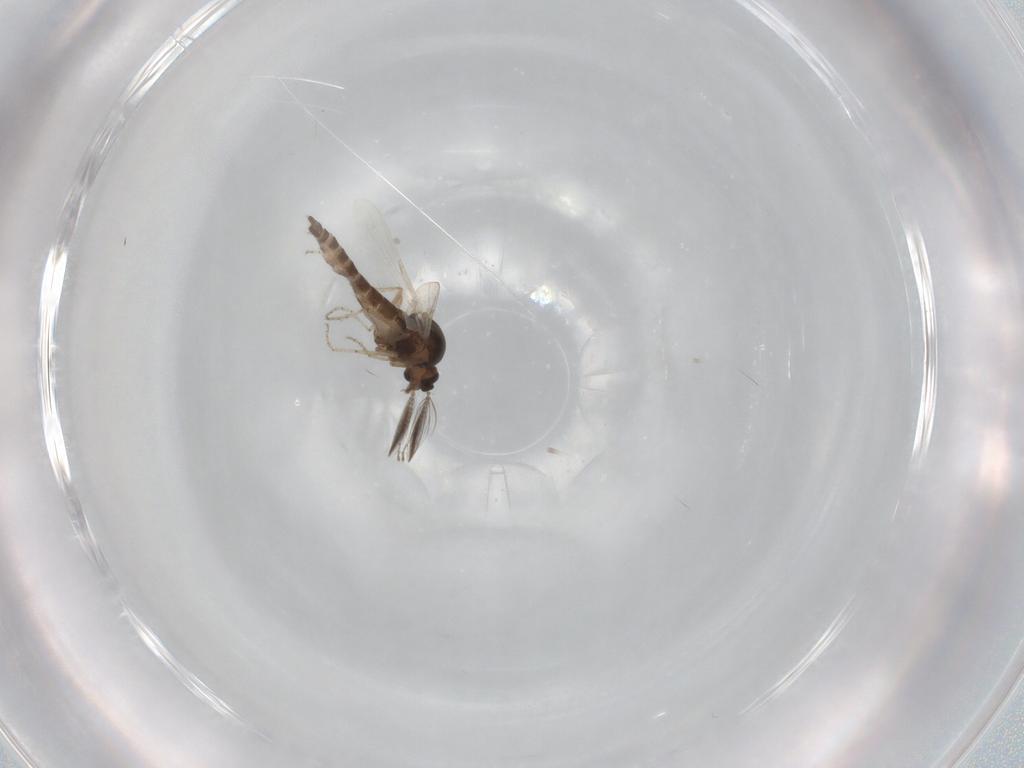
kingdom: Animalia
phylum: Arthropoda
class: Insecta
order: Diptera
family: Ceratopogonidae
